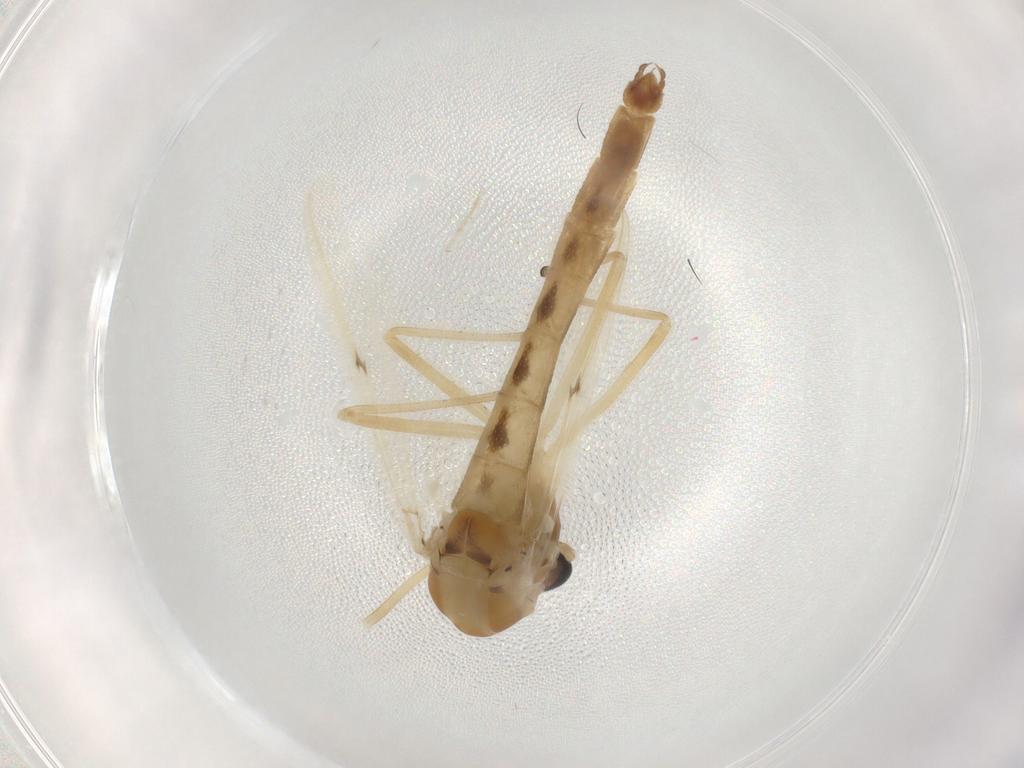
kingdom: Animalia
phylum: Arthropoda
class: Insecta
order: Diptera
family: Chironomidae
